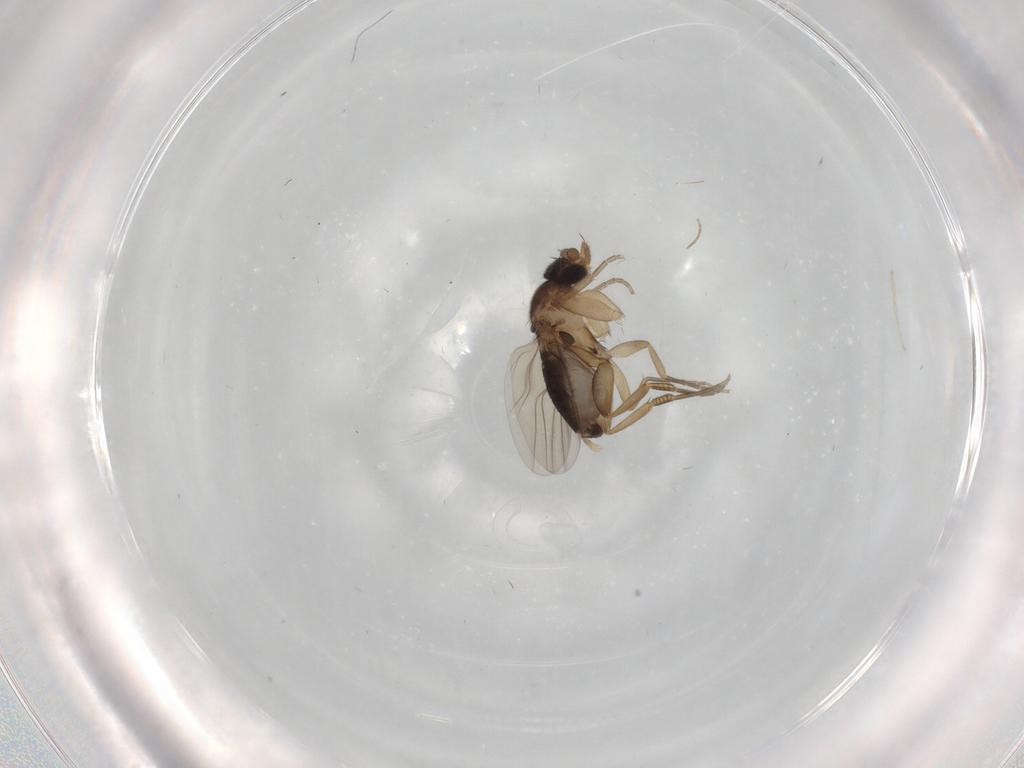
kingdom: Animalia
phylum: Arthropoda
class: Insecta
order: Diptera
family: Phoridae
